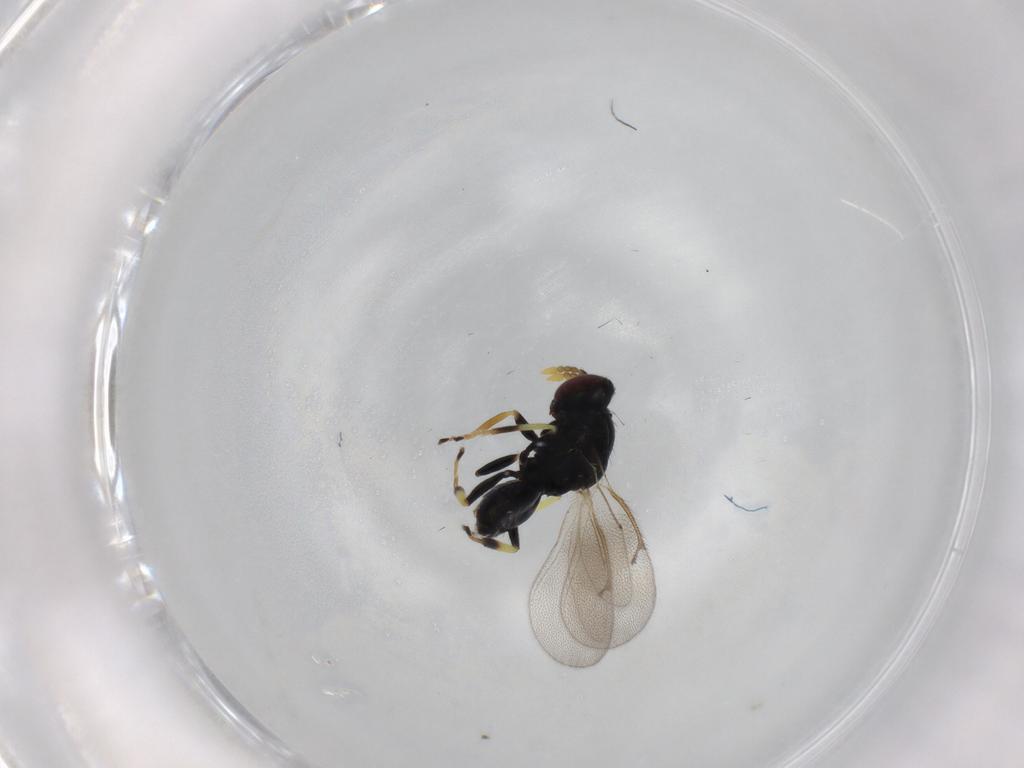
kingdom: Animalia
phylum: Arthropoda
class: Insecta
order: Hymenoptera
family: Eulophidae
